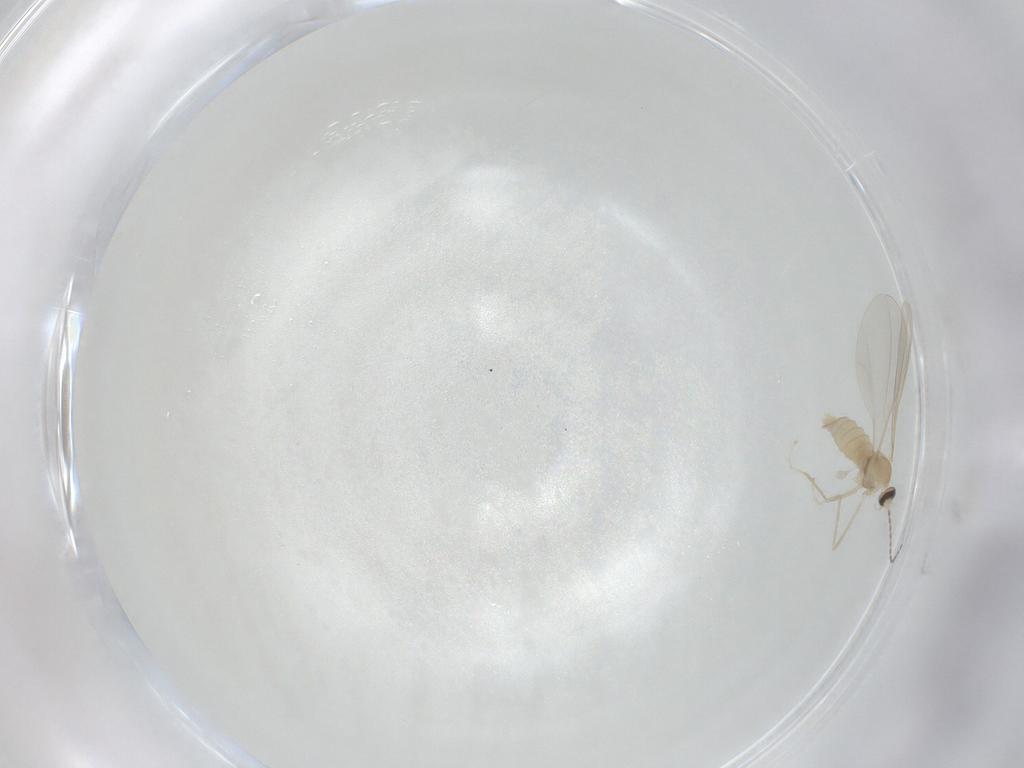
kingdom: Animalia
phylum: Arthropoda
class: Insecta
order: Diptera
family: Cecidomyiidae
